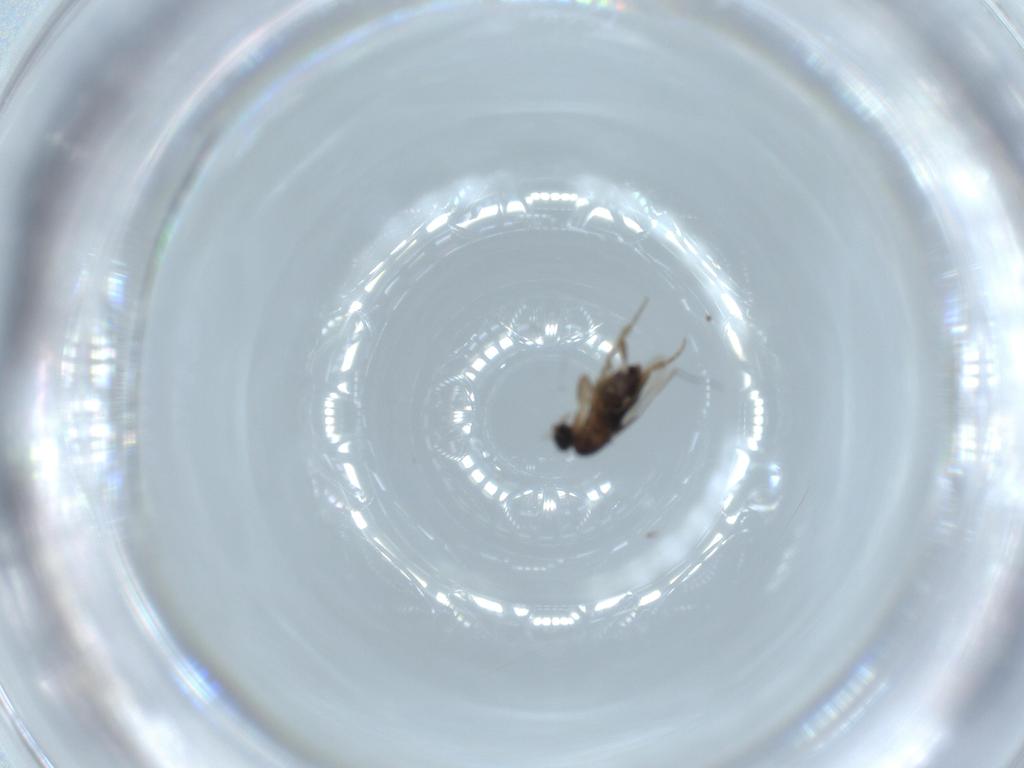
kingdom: Animalia
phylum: Arthropoda
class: Insecta
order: Diptera
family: Phoridae
